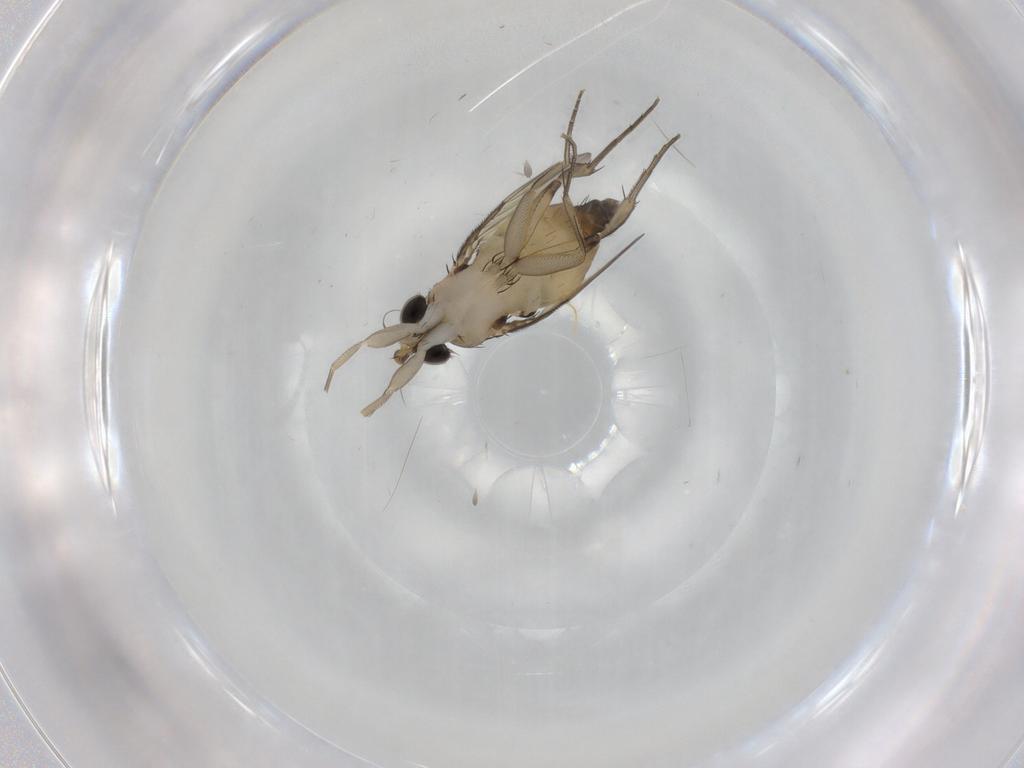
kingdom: Animalia
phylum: Arthropoda
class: Insecta
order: Diptera
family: Phoridae
